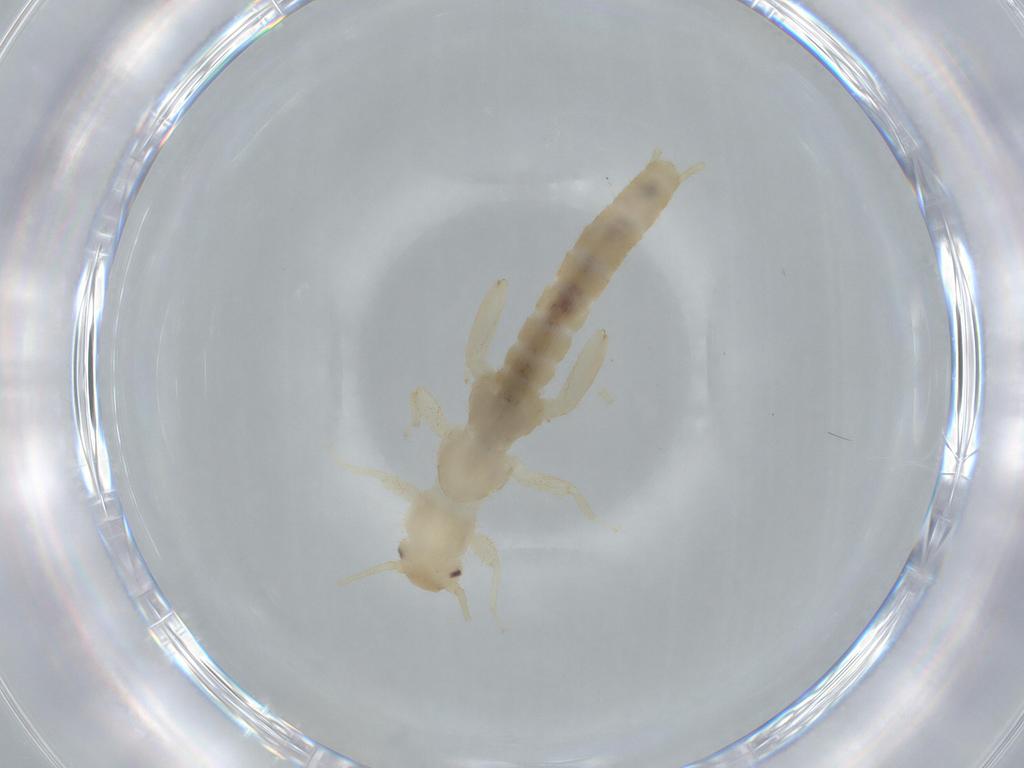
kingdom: Animalia
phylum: Arthropoda
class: Insecta
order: Plecoptera
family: Leuctridae
